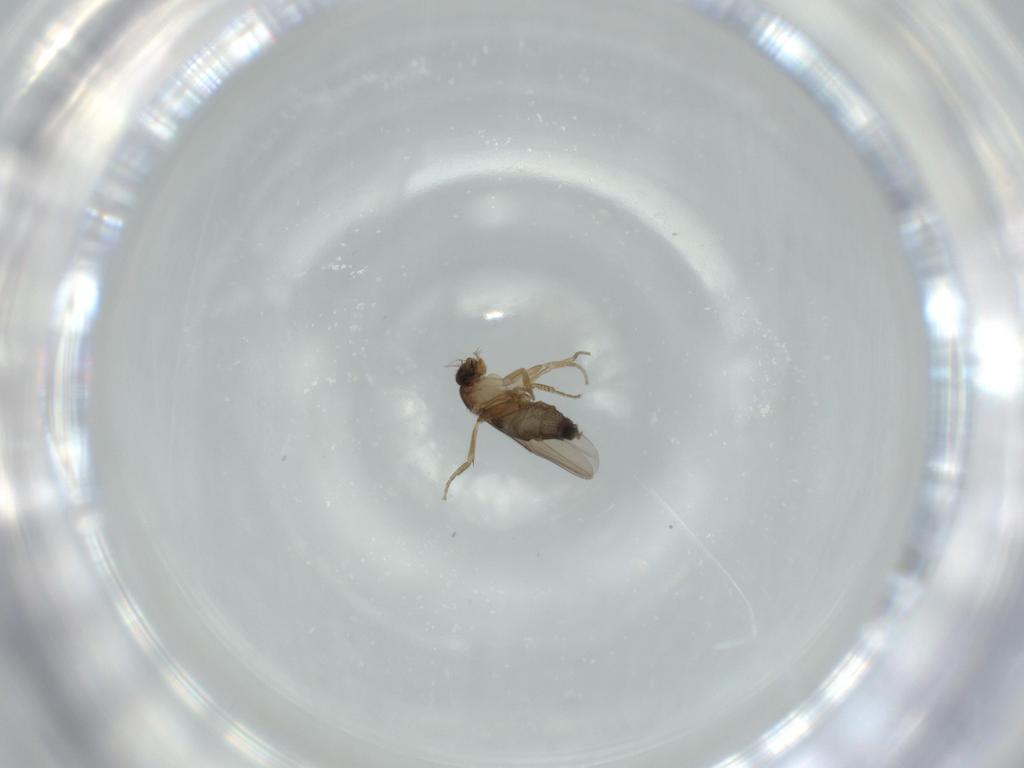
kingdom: Animalia
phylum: Arthropoda
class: Insecta
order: Diptera
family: Phoridae
